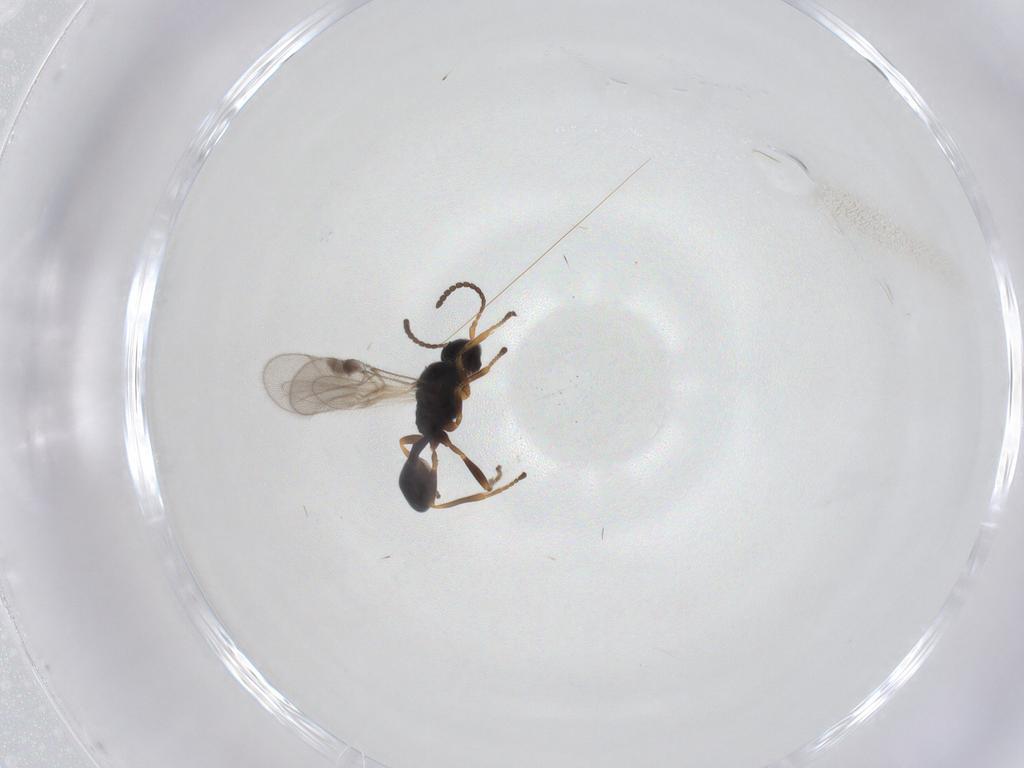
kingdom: Animalia
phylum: Arthropoda
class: Insecta
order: Hymenoptera
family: Braconidae
